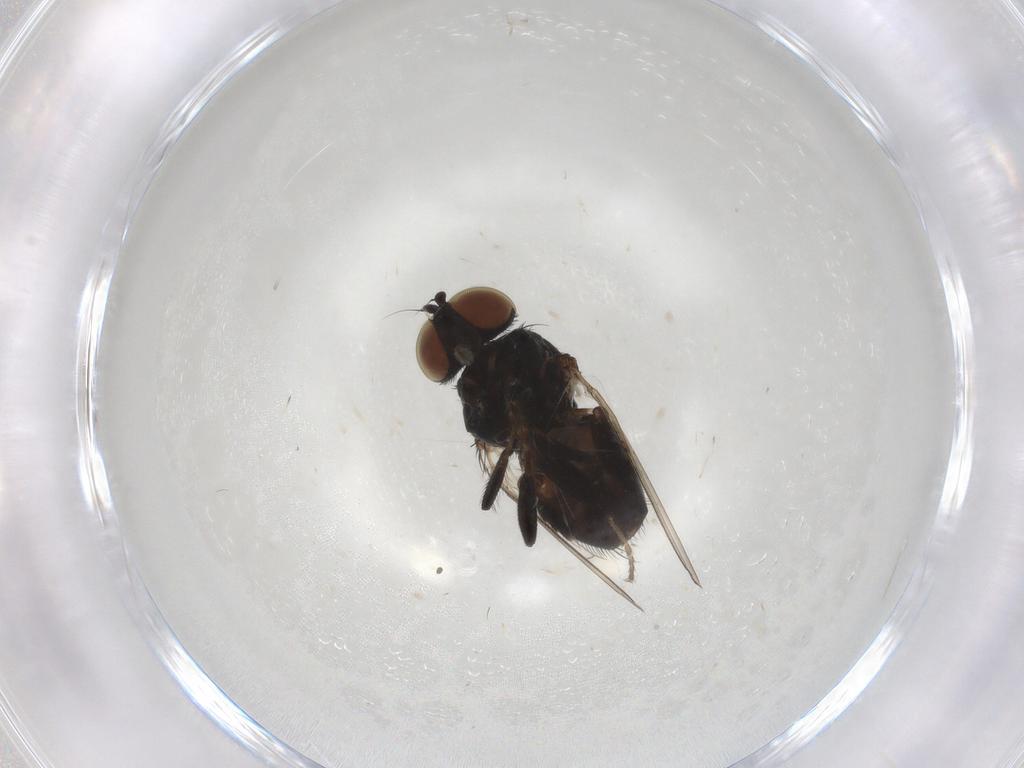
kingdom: Animalia
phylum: Arthropoda
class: Insecta
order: Diptera
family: Milichiidae
